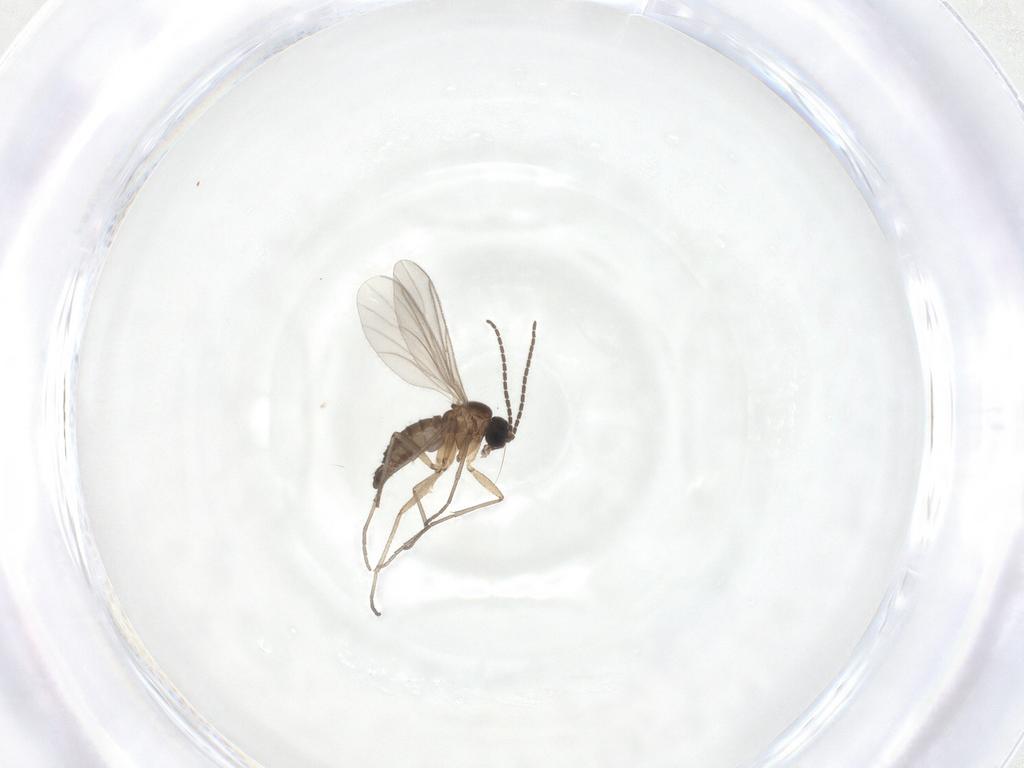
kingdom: Animalia
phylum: Arthropoda
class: Insecta
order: Diptera
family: Sciaridae
